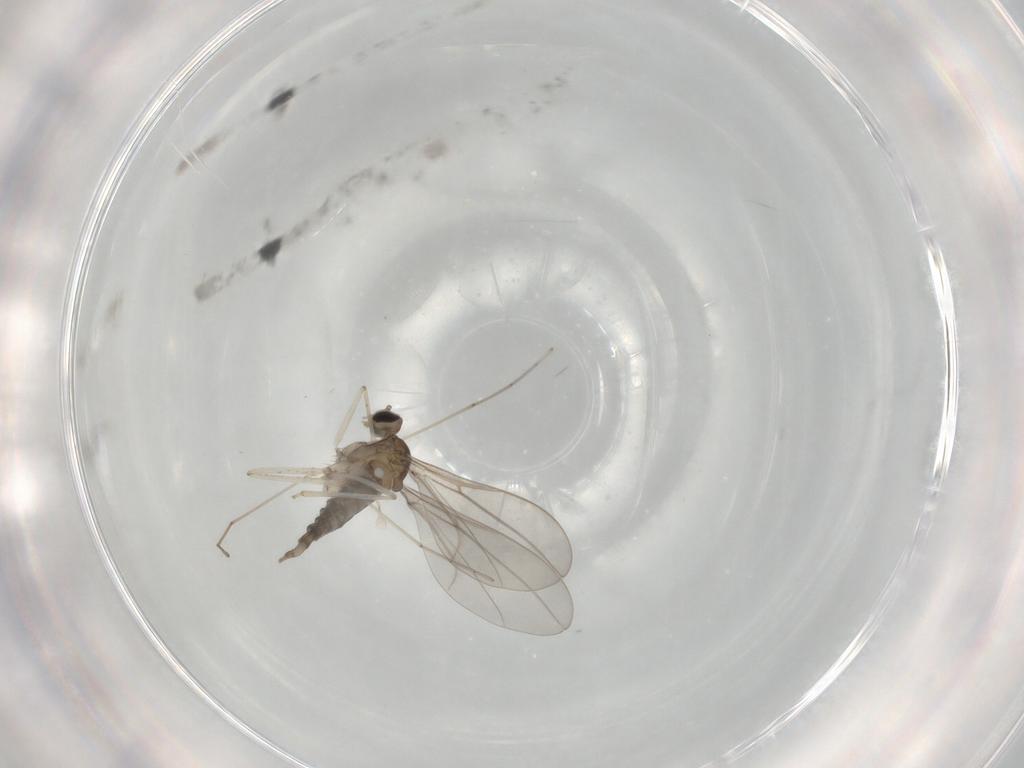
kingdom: Animalia
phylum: Arthropoda
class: Insecta
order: Diptera
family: Cecidomyiidae
